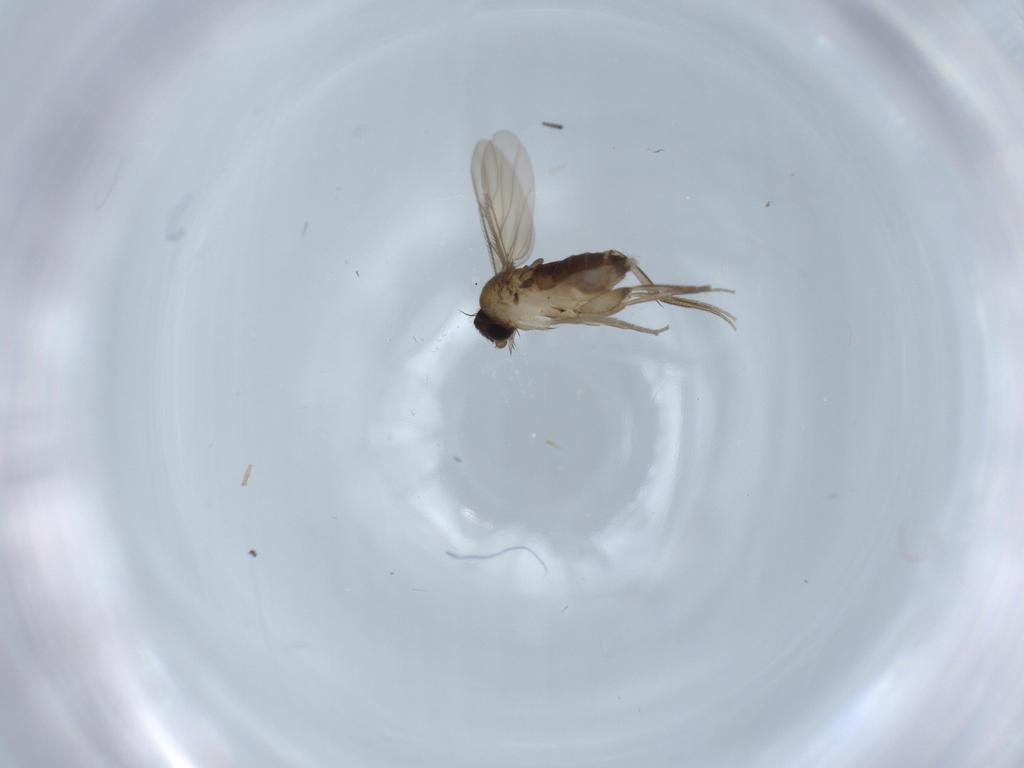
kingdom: Animalia
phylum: Arthropoda
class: Insecta
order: Diptera
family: Phoridae
